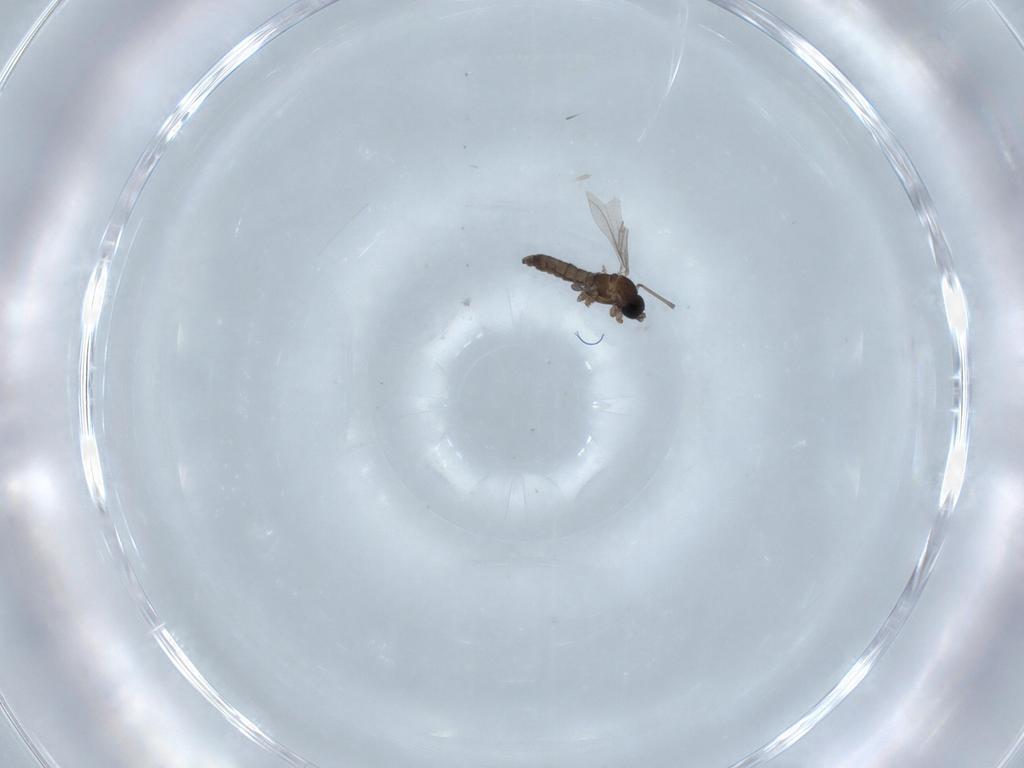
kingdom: Animalia
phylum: Arthropoda
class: Insecta
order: Diptera
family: Sciaridae
